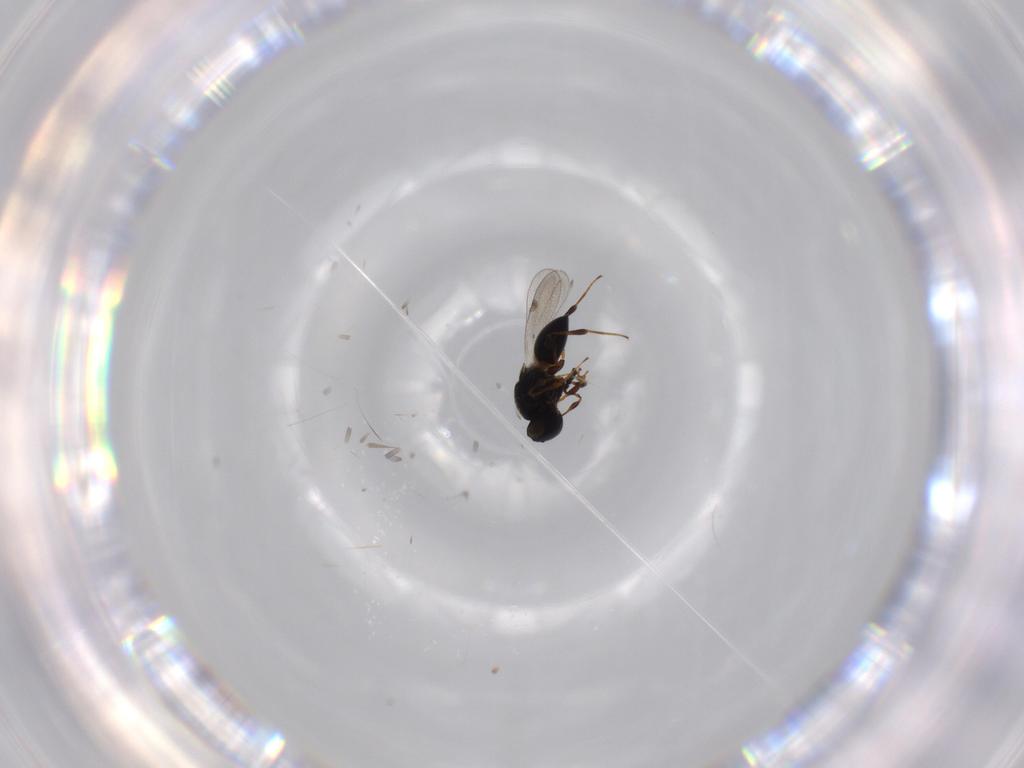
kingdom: Animalia
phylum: Arthropoda
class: Insecta
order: Hymenoptera
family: Platygastridae
